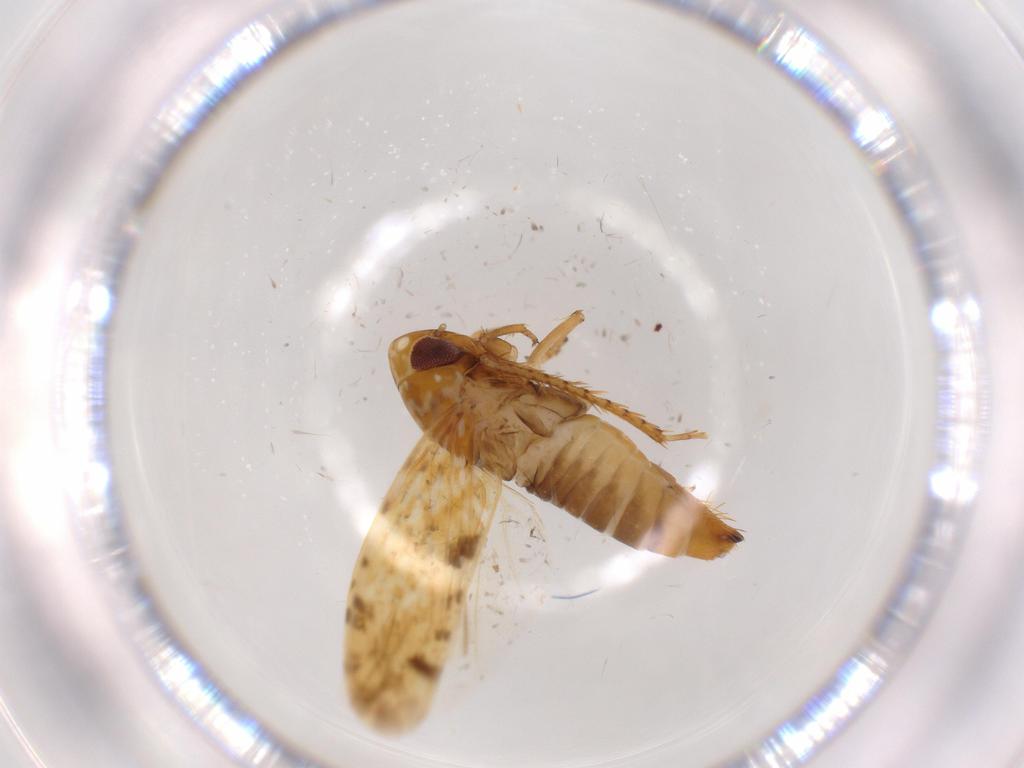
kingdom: Animalia
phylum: Arthropoda
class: Insecta
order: Hemiptera
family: Cicadellidae
